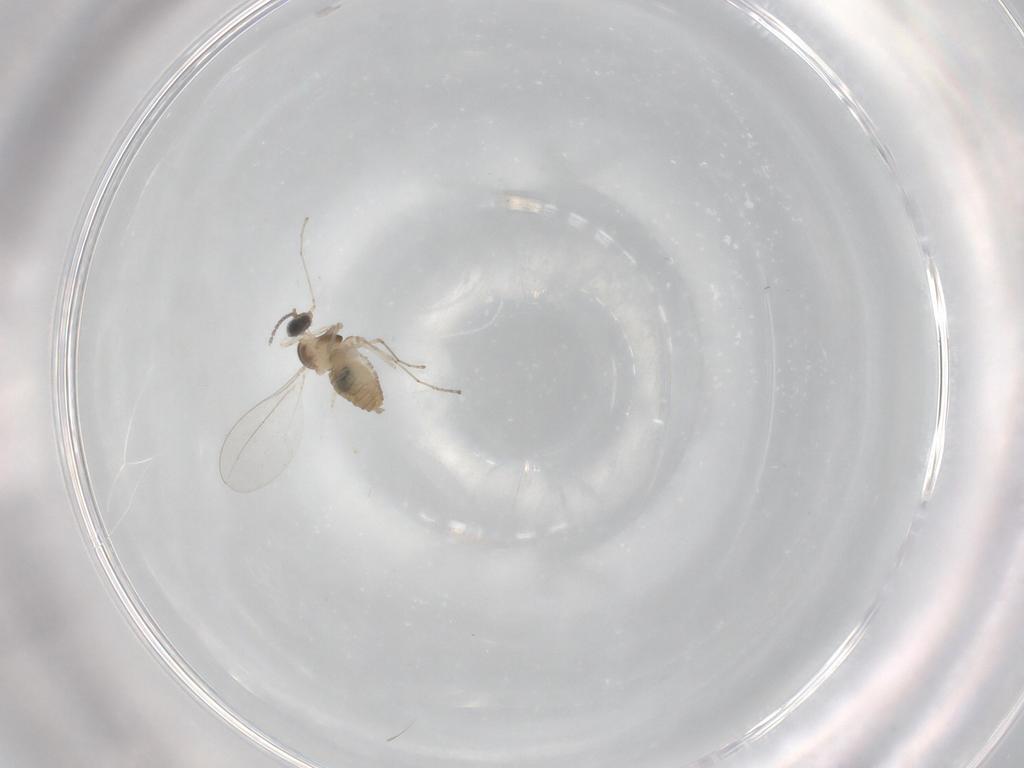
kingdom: Animalia
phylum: Arthropoda
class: Insecta
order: Diptera
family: Cecidomyiidae
